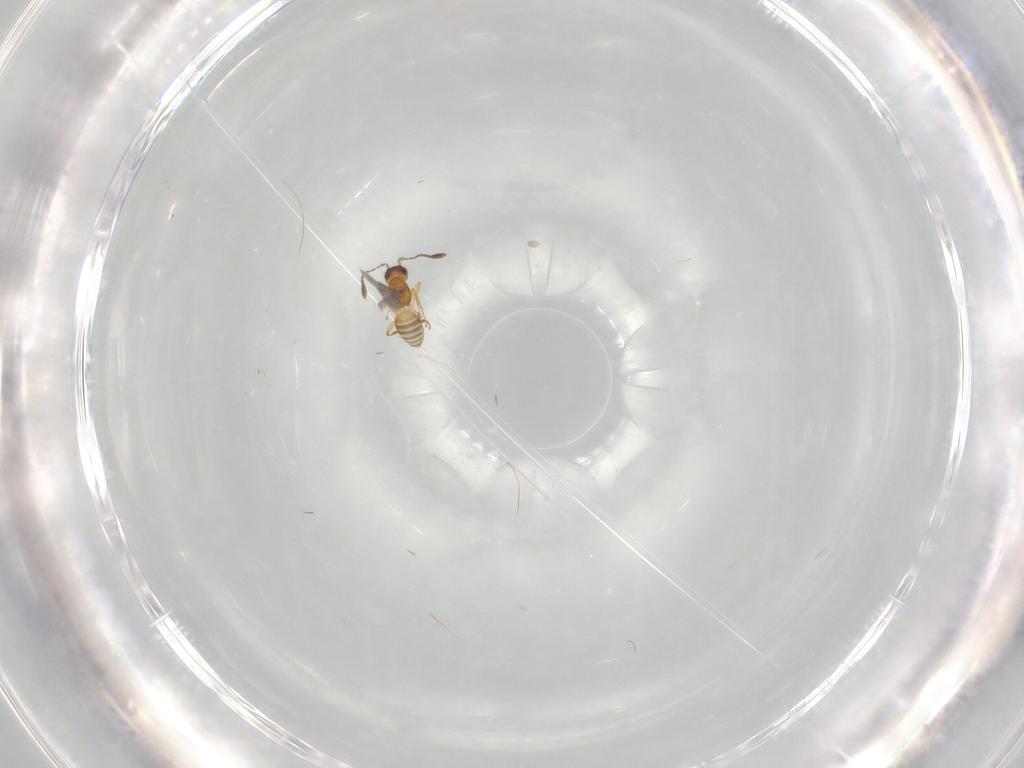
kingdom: Animalia
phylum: Arthropoda
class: Insecta
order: Hymenoptera
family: Mymaridae
